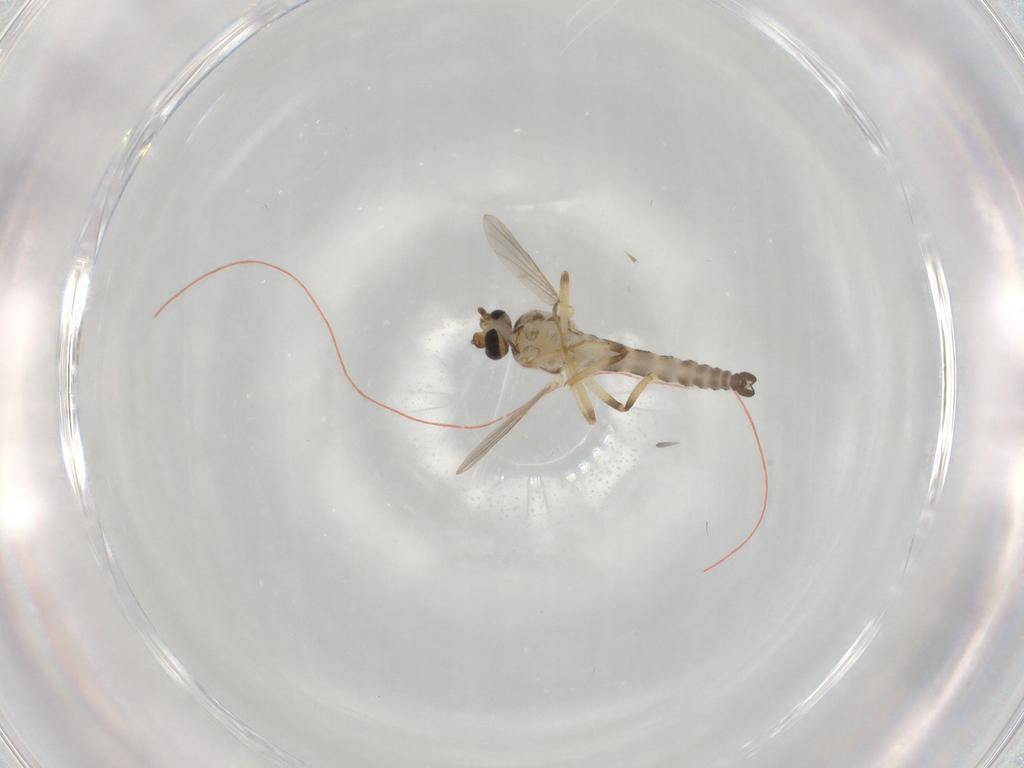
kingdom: Animalia
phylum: Arthropoda
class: Insecta
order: Diptera
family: Ceratopogonidae
